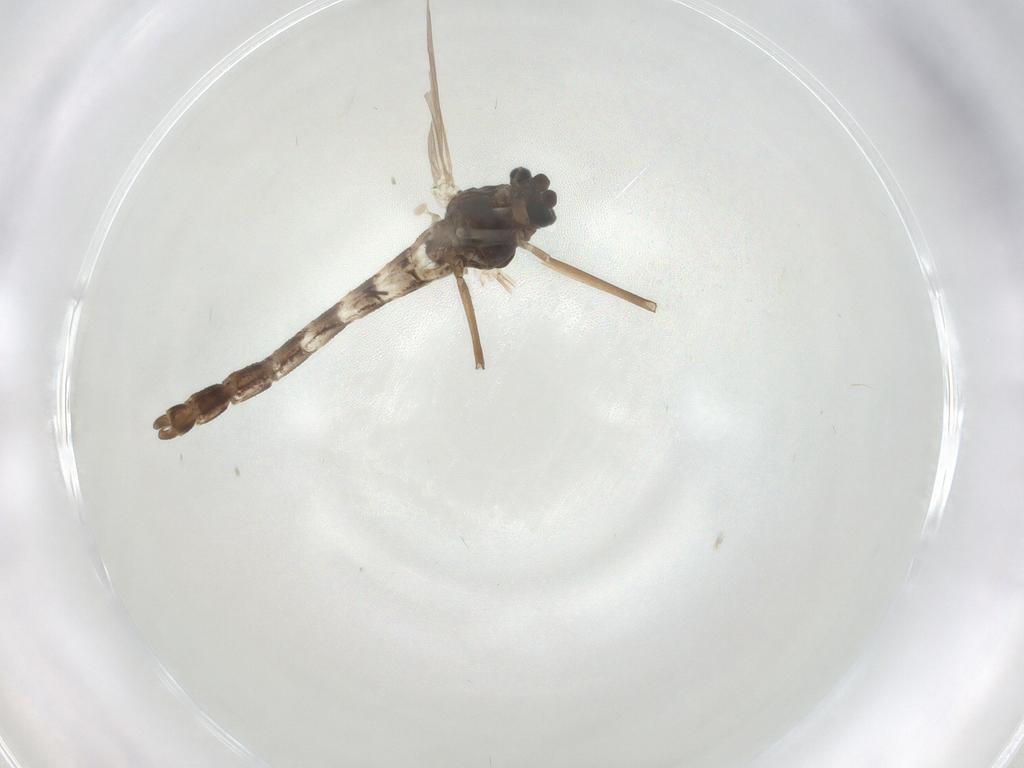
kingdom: Animalia
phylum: Arthropoda
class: Insecta
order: Diptera
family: Chironomidae
